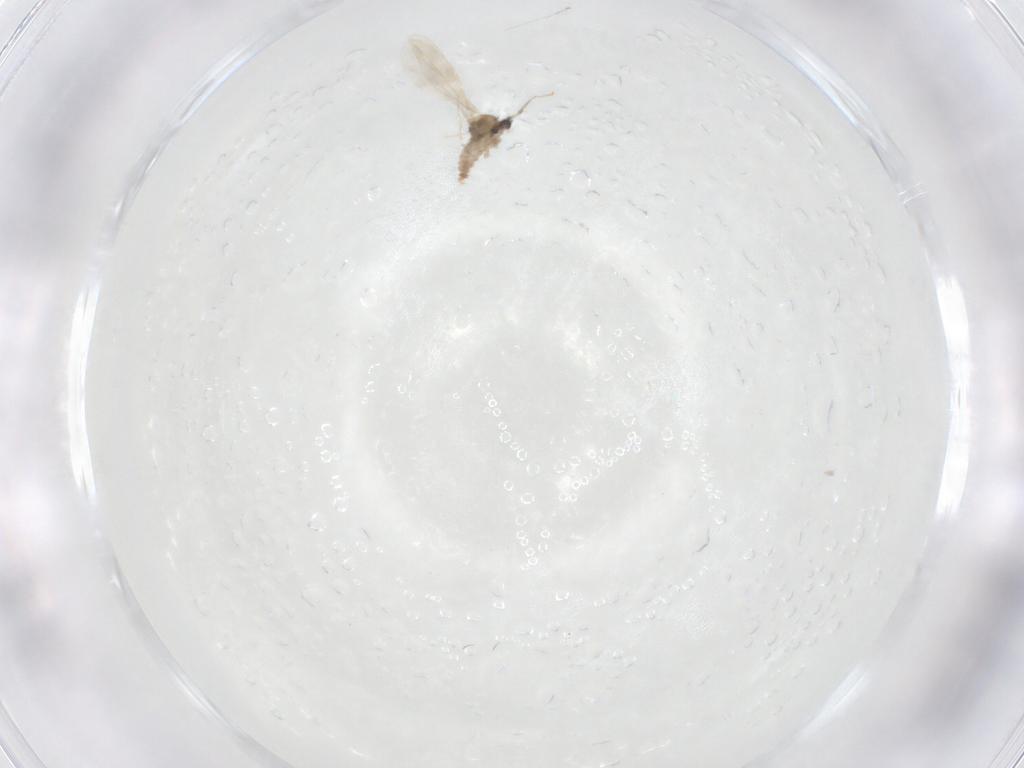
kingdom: Animalia
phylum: Arthropoda
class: Insecta
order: Diptera
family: Cecidomyiidae
